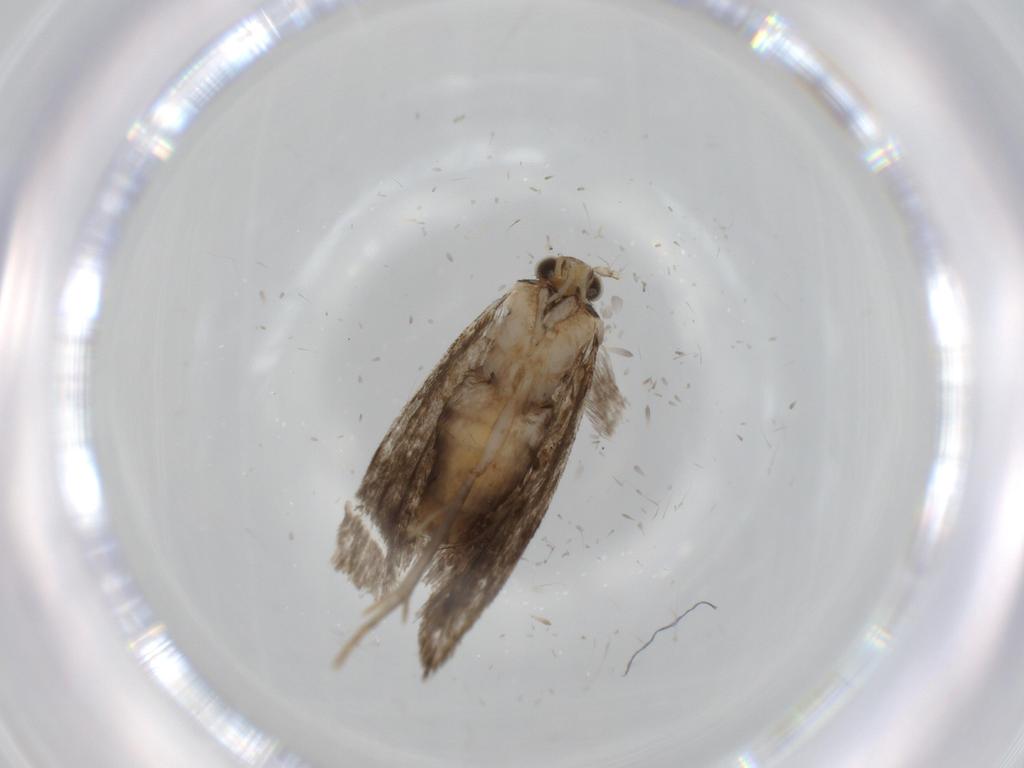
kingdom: Animalia
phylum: Arthropoda
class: Insecta
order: Lepidoptera
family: Tineidae
